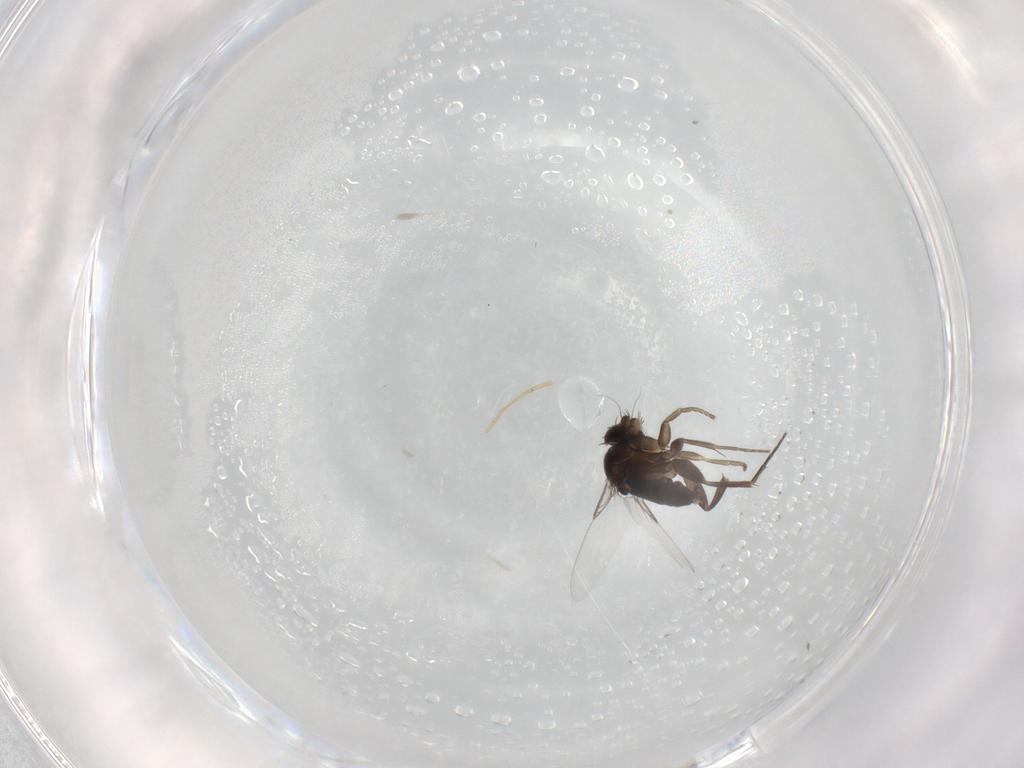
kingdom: Animalia
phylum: Arthropoda
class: Insecta
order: Diptera
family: Phoridae
